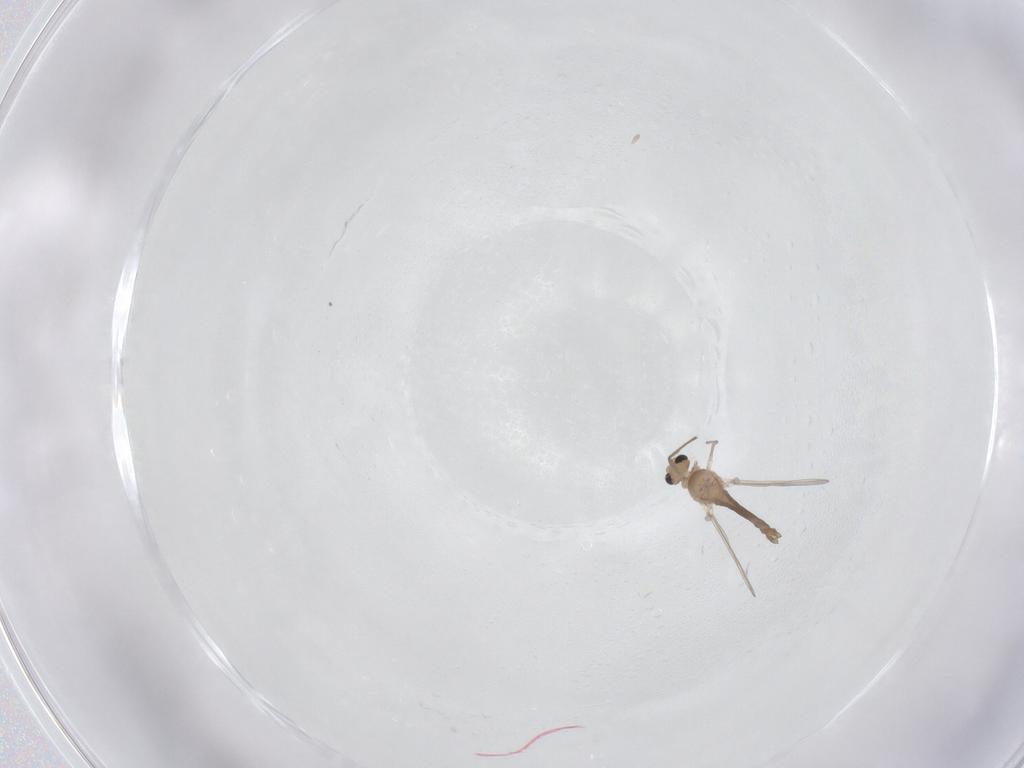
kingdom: Animalia
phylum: Arthropoda
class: Insecta
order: Diptera
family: Chironomidae
